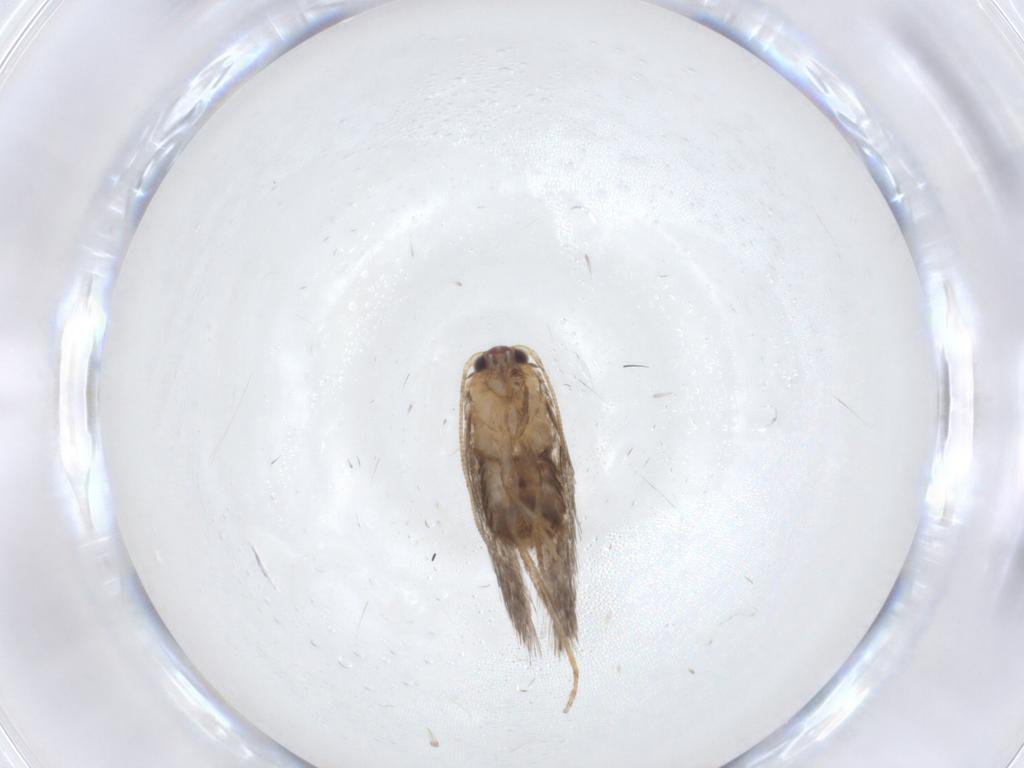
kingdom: Animalia
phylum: Arthropoda
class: Insecta
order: Lepidoptera
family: Nepticulidae
